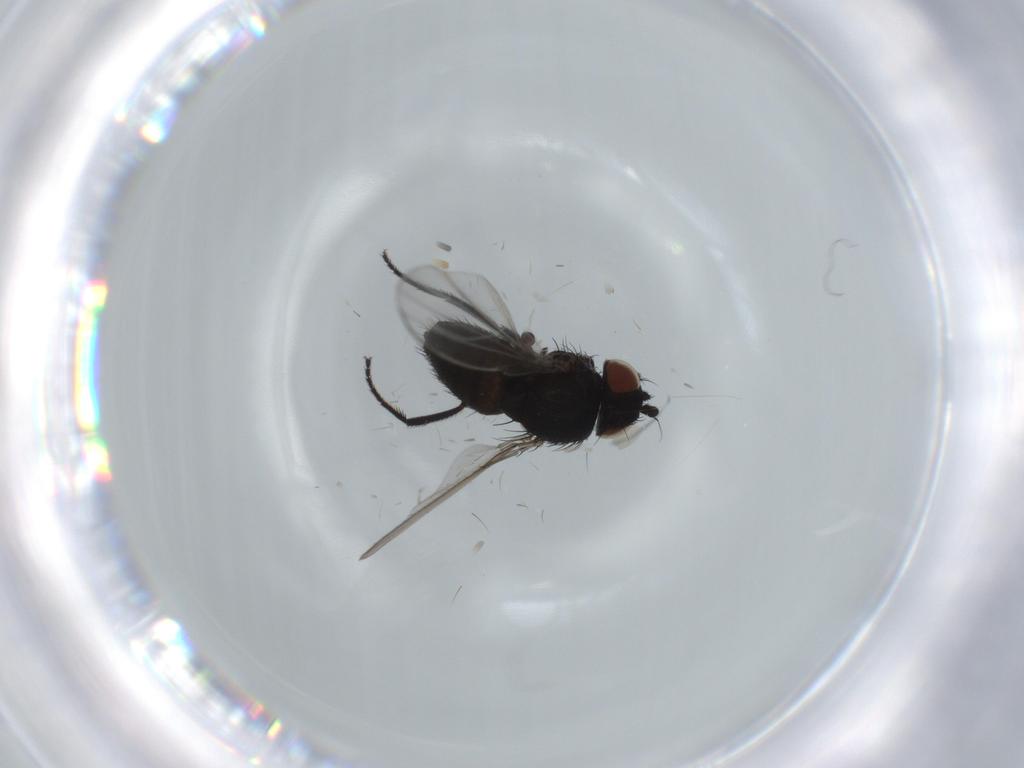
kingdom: Animalia
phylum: Arthropoda
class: Insecta
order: Diptera
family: Milichiidae
